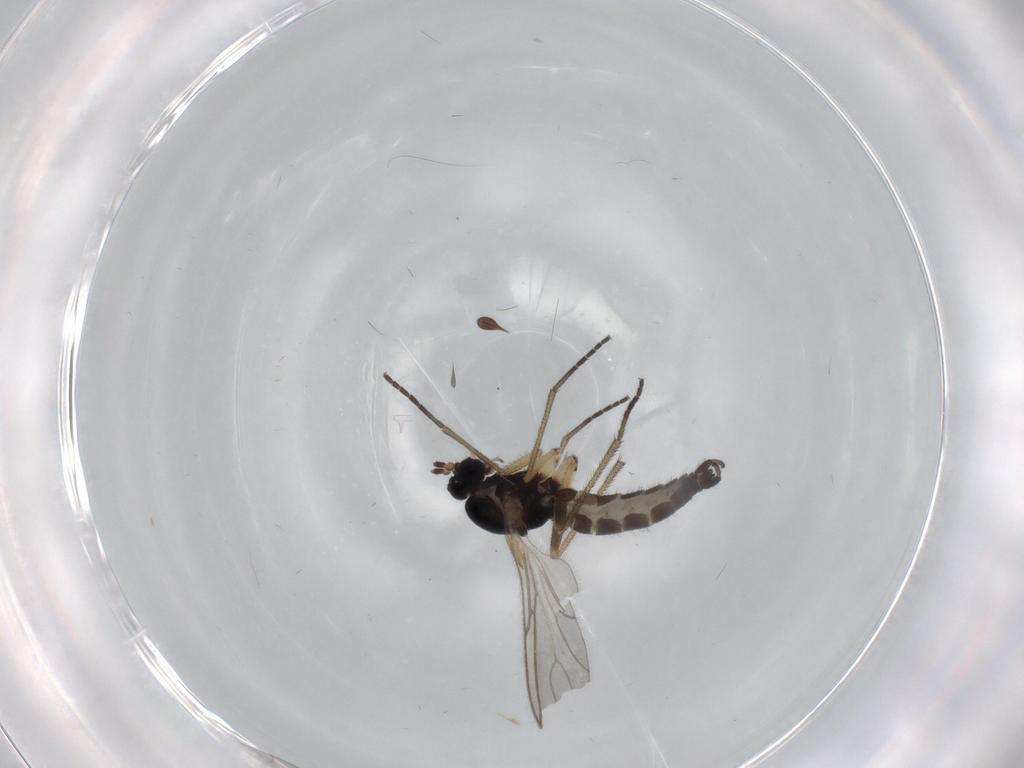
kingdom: Animalia
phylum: Arthropoda
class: Insecta
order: Diptera
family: Sciaridae
